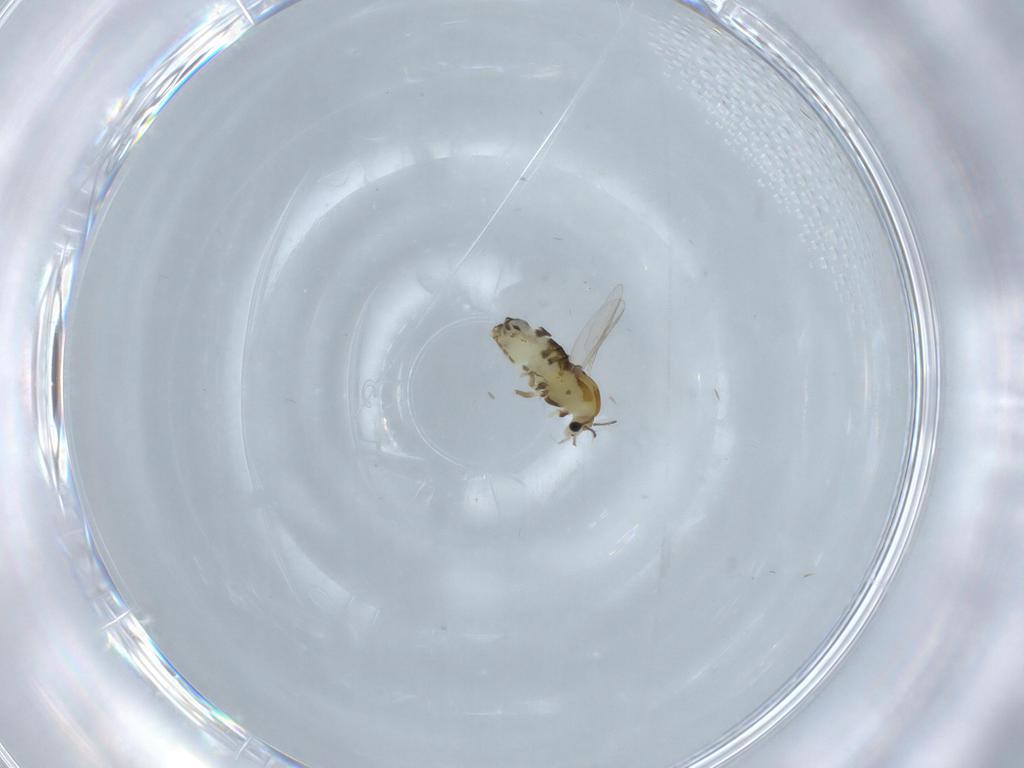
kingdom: Animalia
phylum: Arthropoda
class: Insecta
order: Diptera
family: Chironomidae
